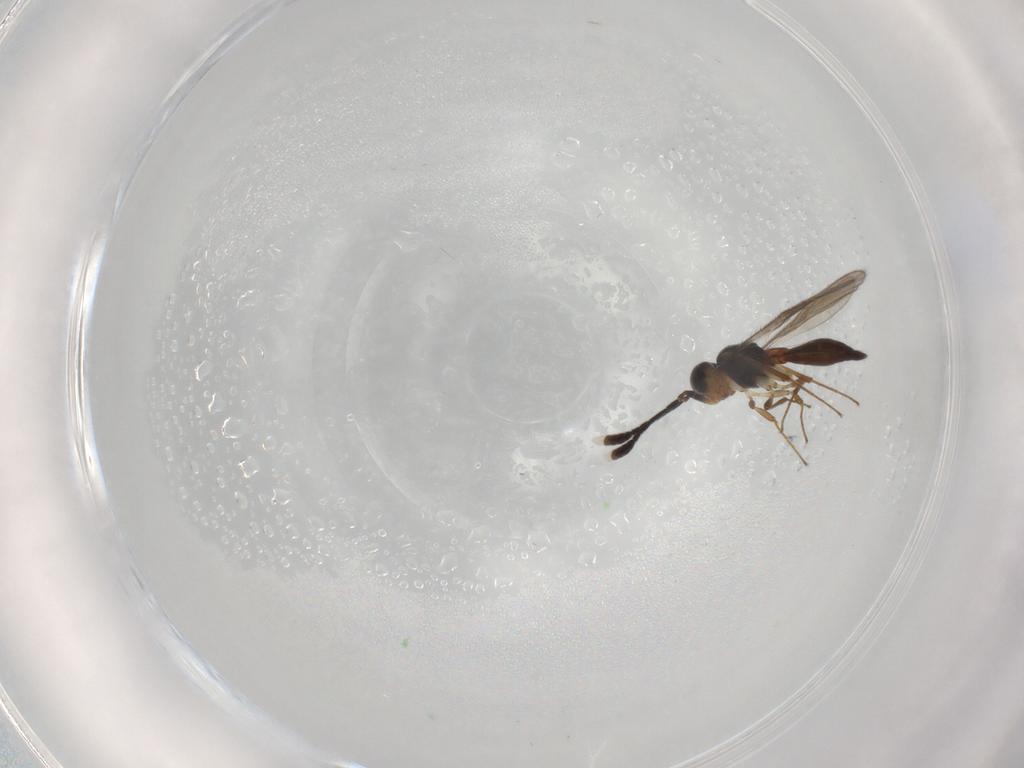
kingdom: Animalia
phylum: Arthropoda
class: Insecta
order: Hymenoptera
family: Scelionidae
